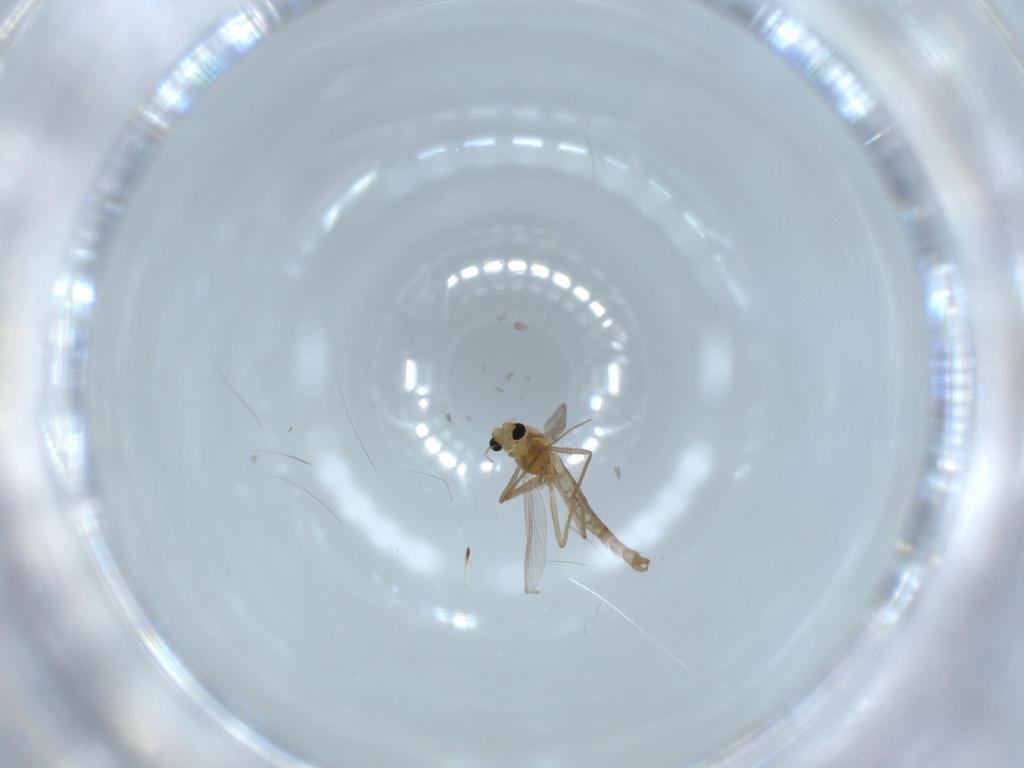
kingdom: Animalia
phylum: Arthropoda
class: Insecta
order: Diptera
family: Chironomidae
